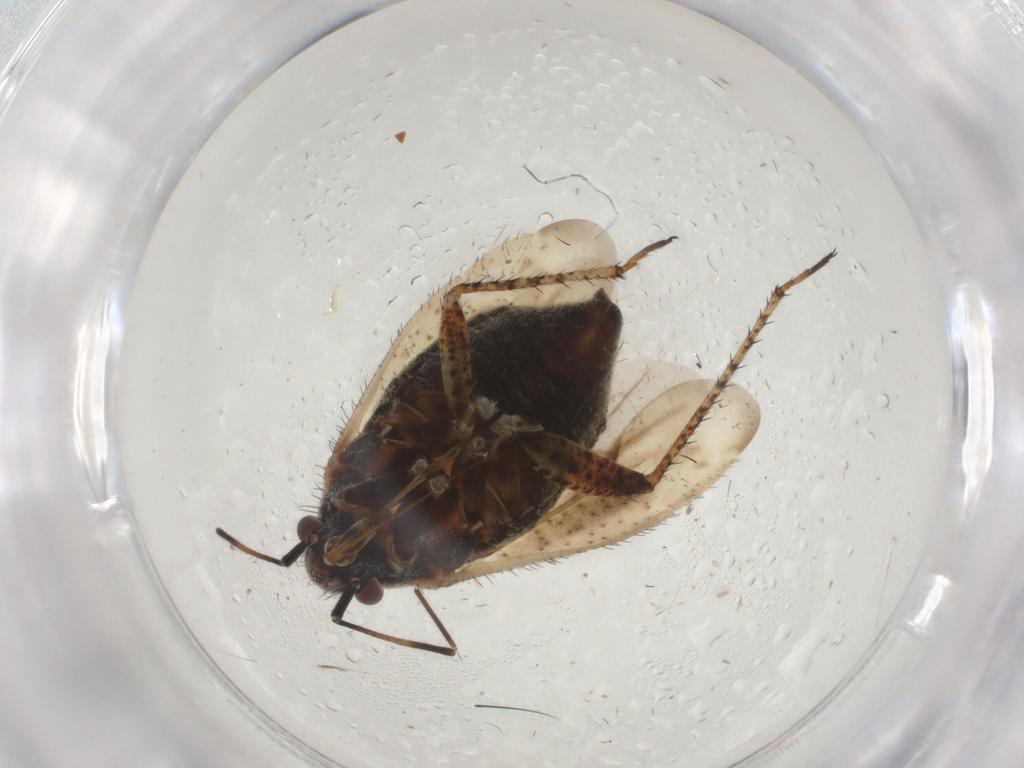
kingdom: Animalia
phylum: Arthropoda
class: Insecta
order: Hemiptera
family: Miridae
